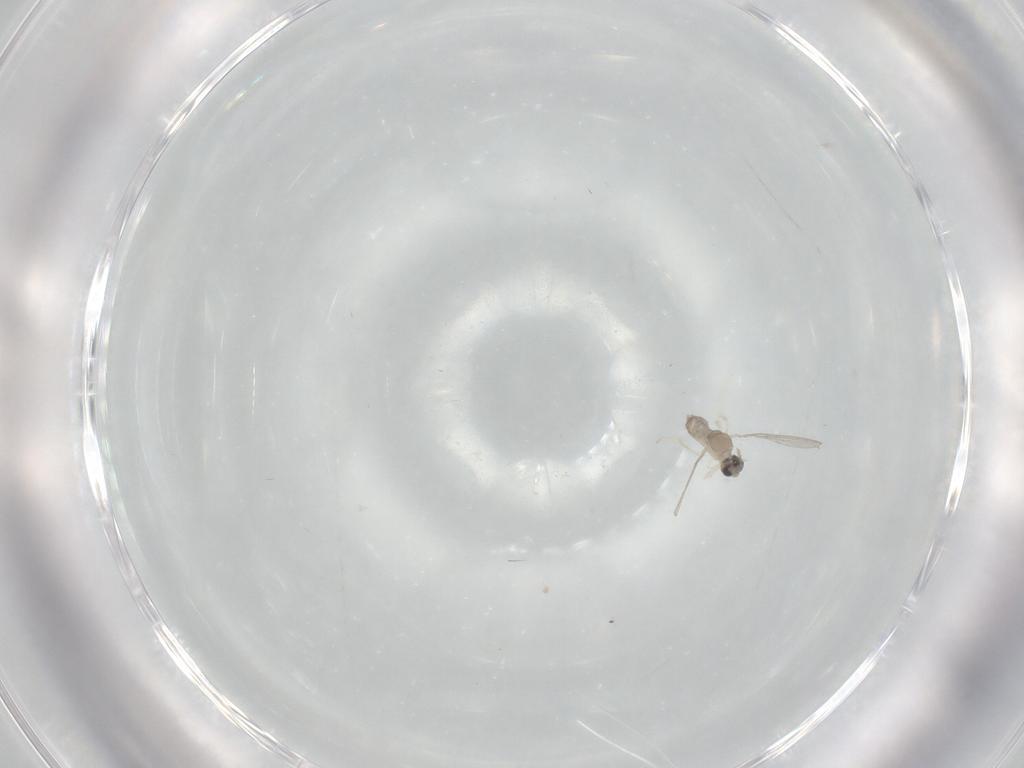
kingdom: Animalia
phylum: Arthropoda
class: Insecta
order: Diptera
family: Cecidomyiidae
